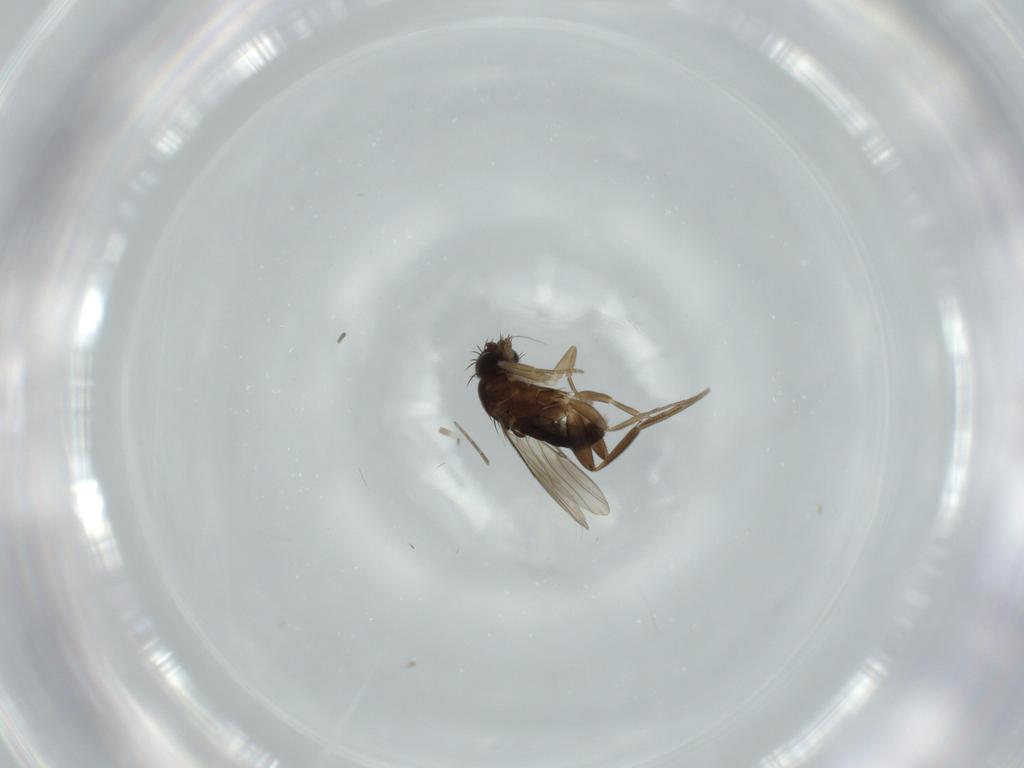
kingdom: Animalia
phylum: Arthropoda
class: Insecta
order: Diptera
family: Phoridae
